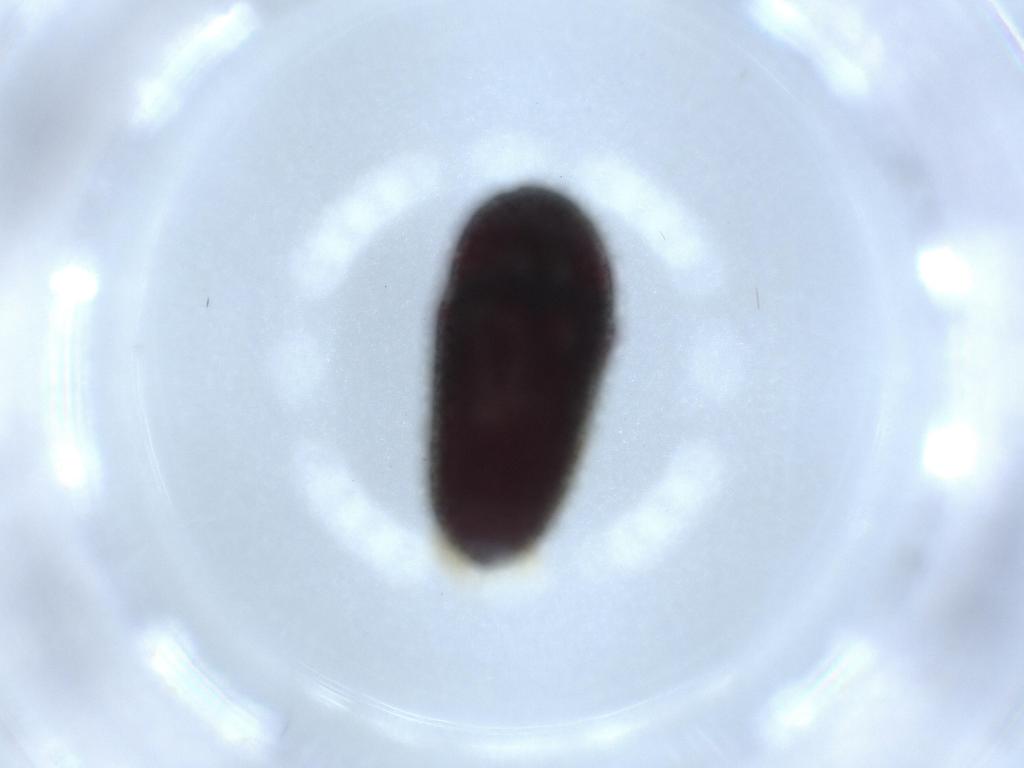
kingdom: Animalia
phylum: Arthropoda
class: Insecta
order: Coleoptera
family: Throscidae
